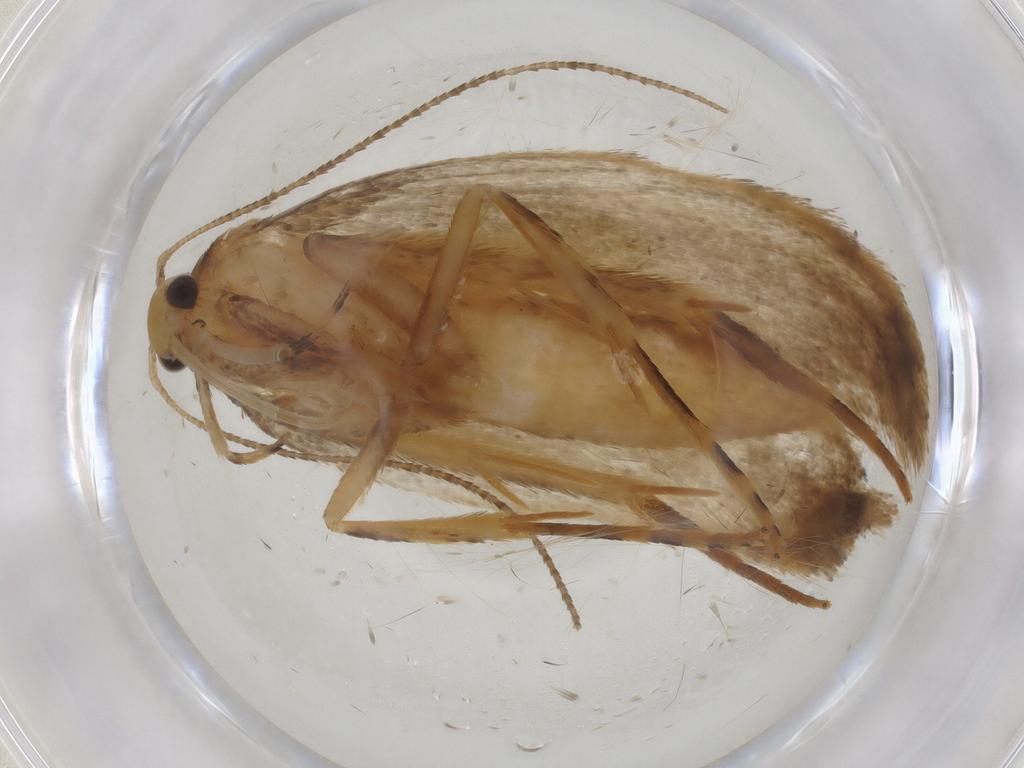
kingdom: Animalia
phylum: Arthropoda
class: Insecta
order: Lepidoptera
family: Gelechiidae
